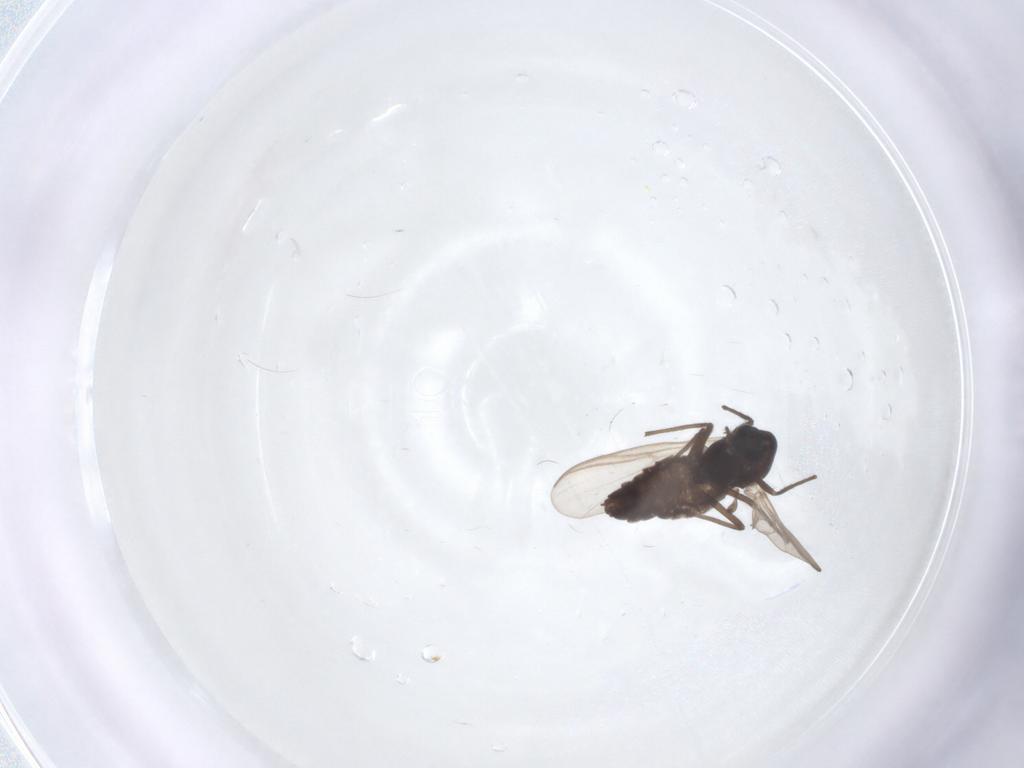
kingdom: Animalia
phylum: Arthropoda
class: Insecta
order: Diptera
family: Chironomidae
